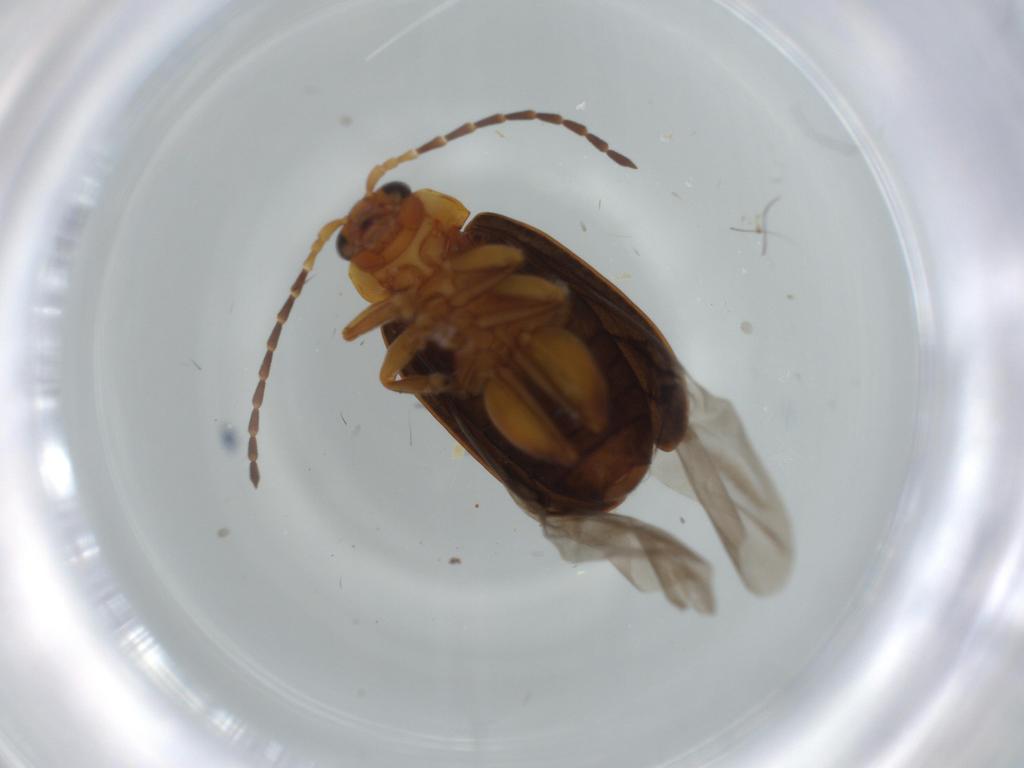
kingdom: Animalia
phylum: Arthropoda
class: Insecta
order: Coleoptera
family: Chrysomelidae
